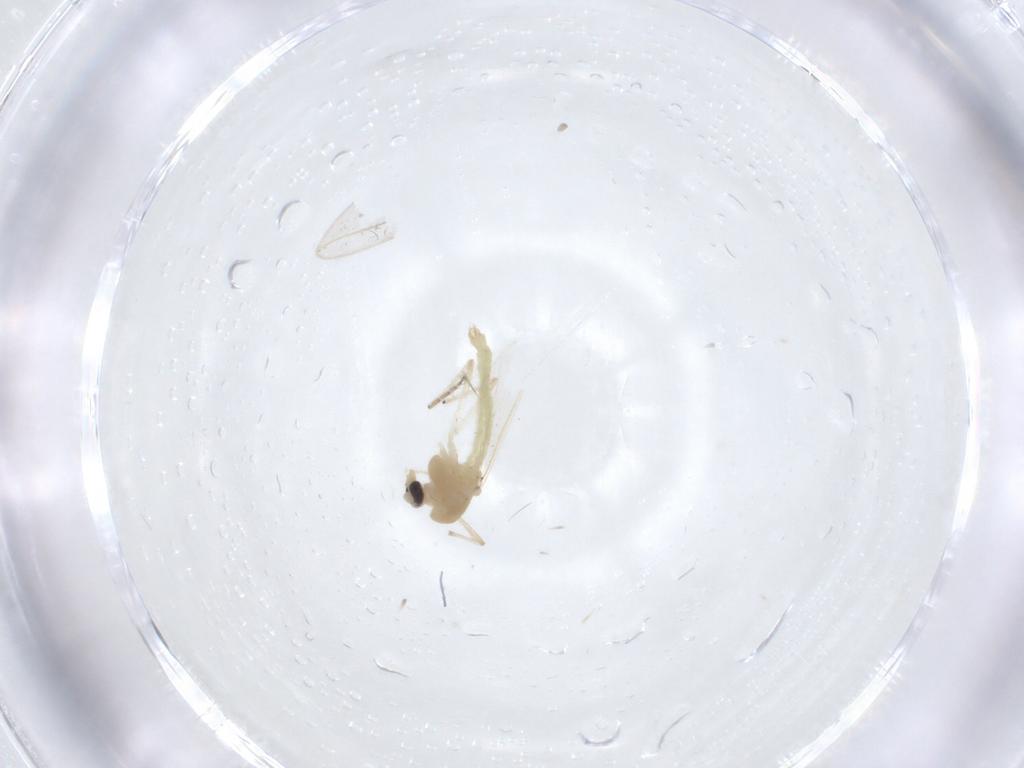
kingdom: Animalia
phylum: Arthropoda
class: Insecta
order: Diptera
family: Chironomidae
